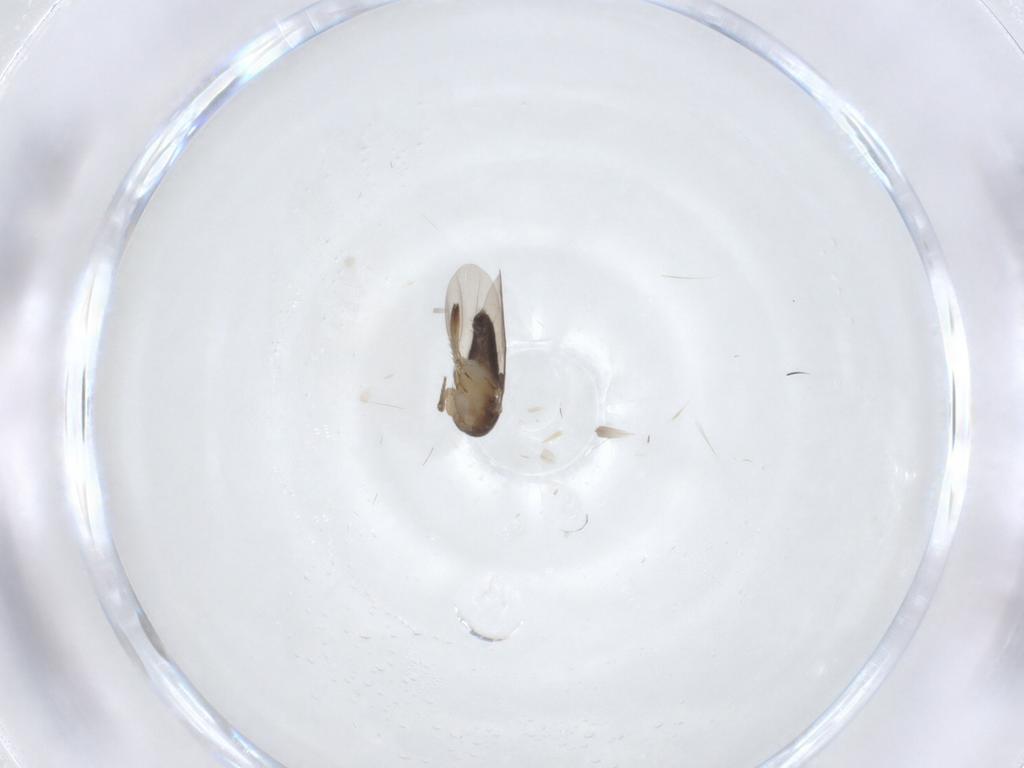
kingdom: Animalia
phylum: Arthropoda
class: Insecta
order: Diptera
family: Phoridae
